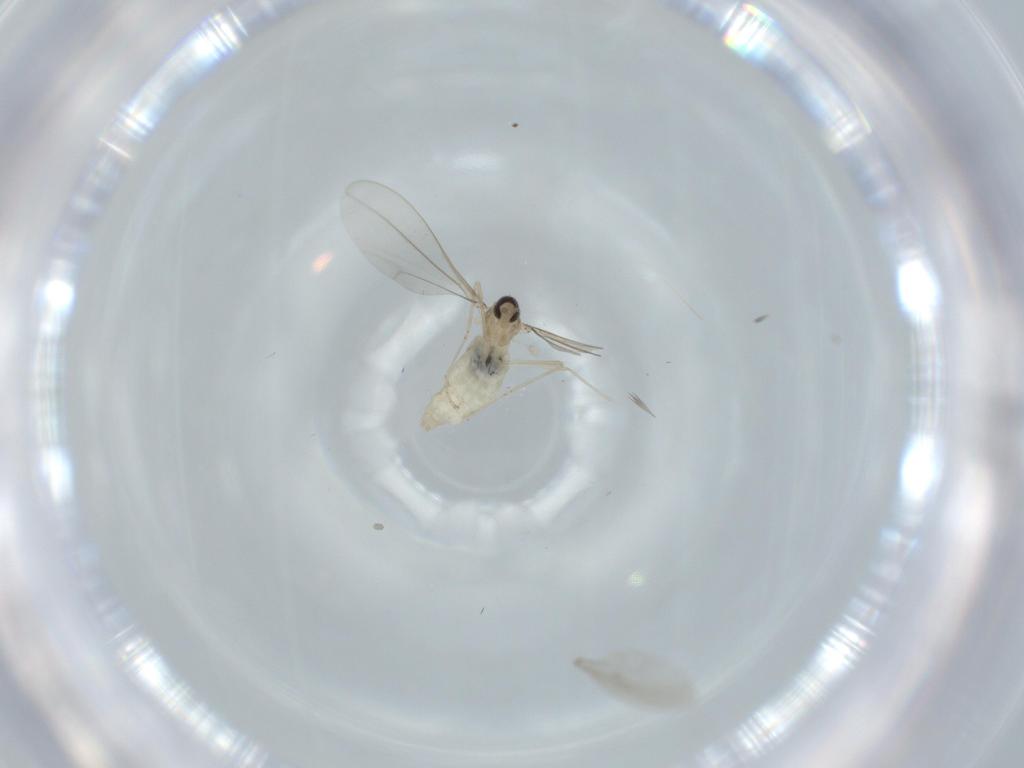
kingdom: Animalia
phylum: Arthropoda
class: Insecta
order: Diptera
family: Cecidomyiidae
